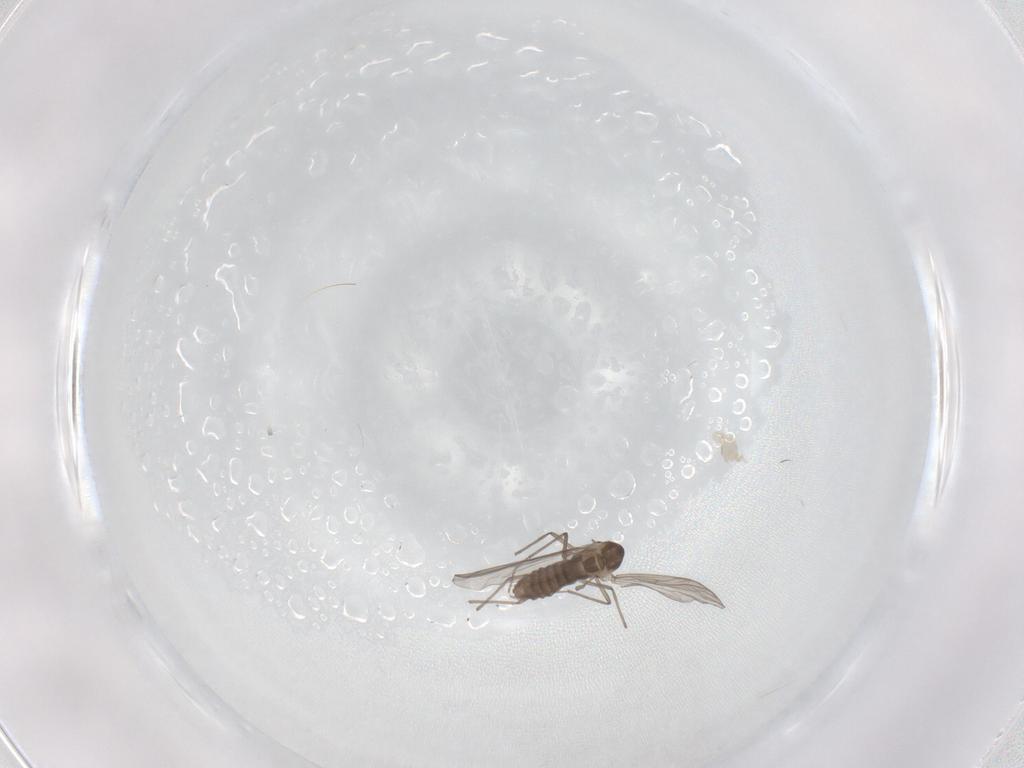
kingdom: Animalia
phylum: Arthropoda
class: Insecta
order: Diptera
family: Chironomidae
